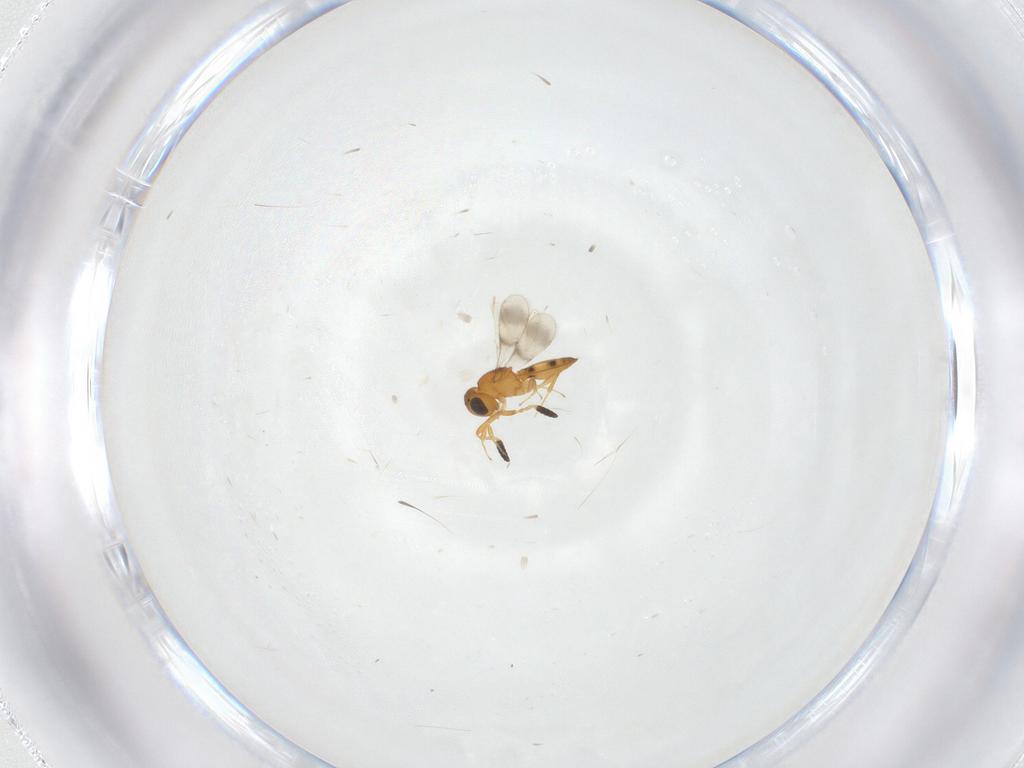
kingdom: Animalia
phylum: Arthropoda
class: Insecta
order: Hymenoptera
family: Scelionidae
